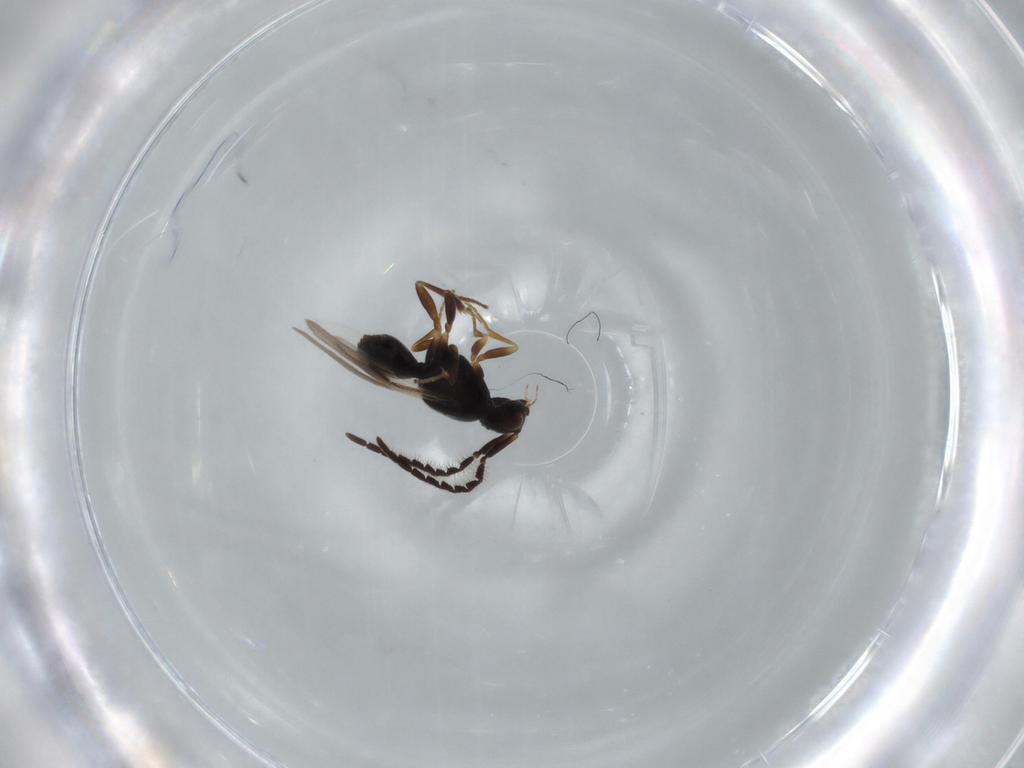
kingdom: Animalia
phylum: Arthropoda
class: Insecta
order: Hymenoptera
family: Megaspilidae
